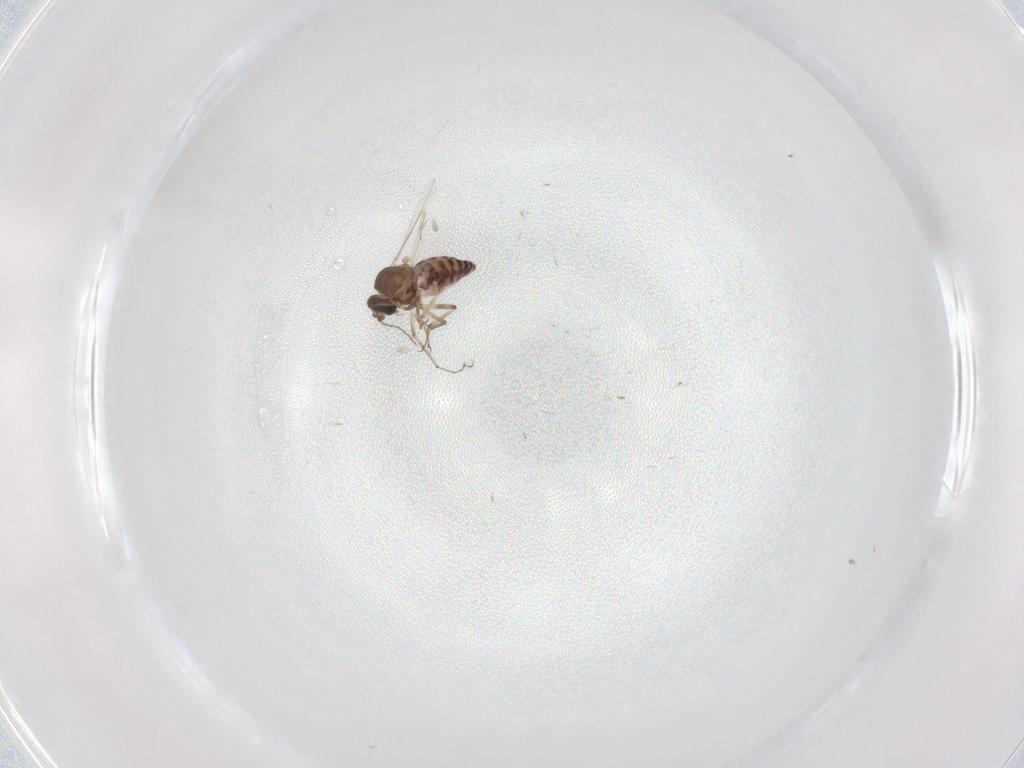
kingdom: Animalia
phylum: Arthropoda
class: Insecta
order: Diptera
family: Ceratopogonidae
